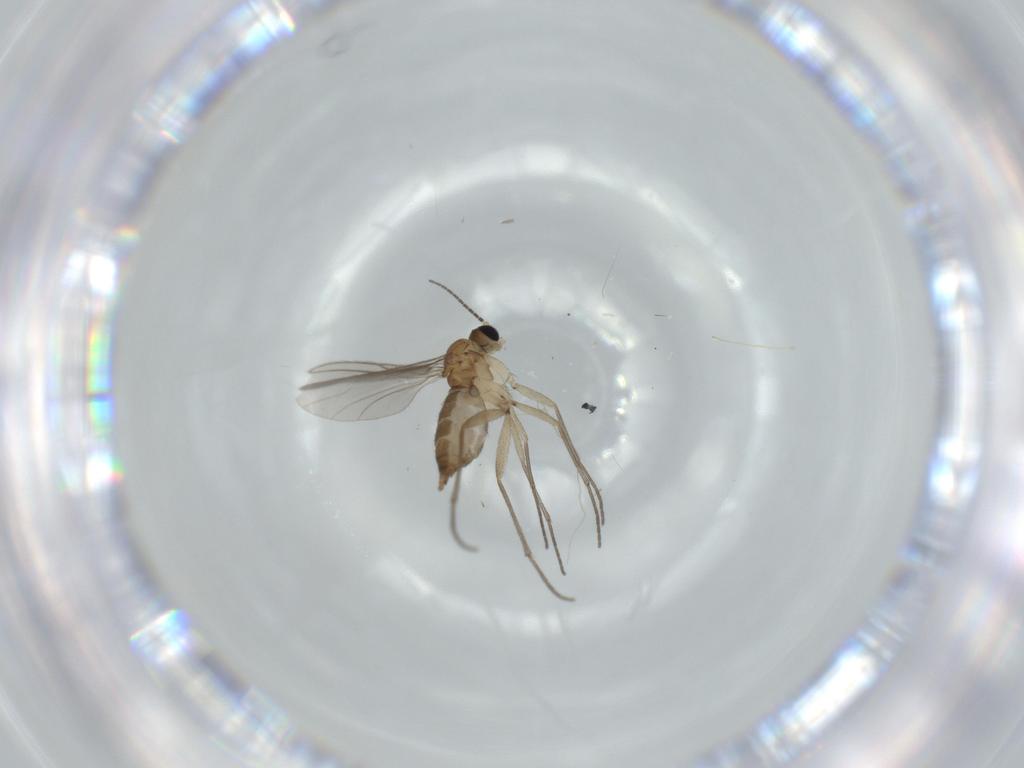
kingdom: Animalia
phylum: Arthropoda
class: Insecta
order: Diptera
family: Sciaridae
